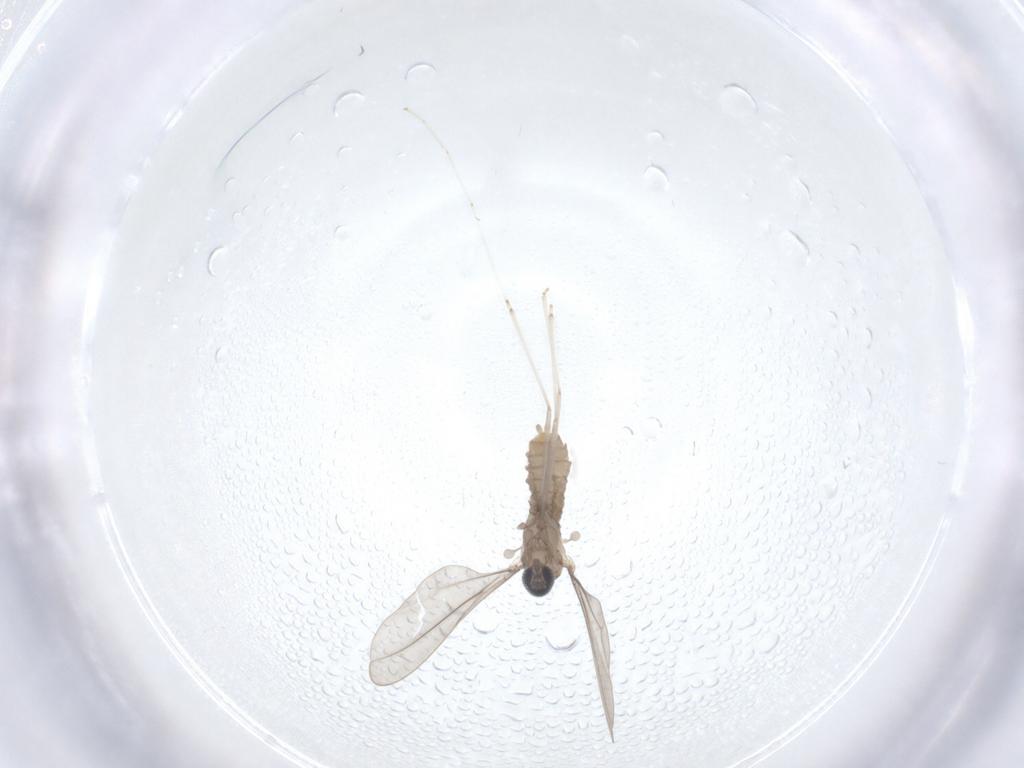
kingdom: Animalia
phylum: Arthropoda
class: Insecta
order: Diptera
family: Cecidomyiidae
